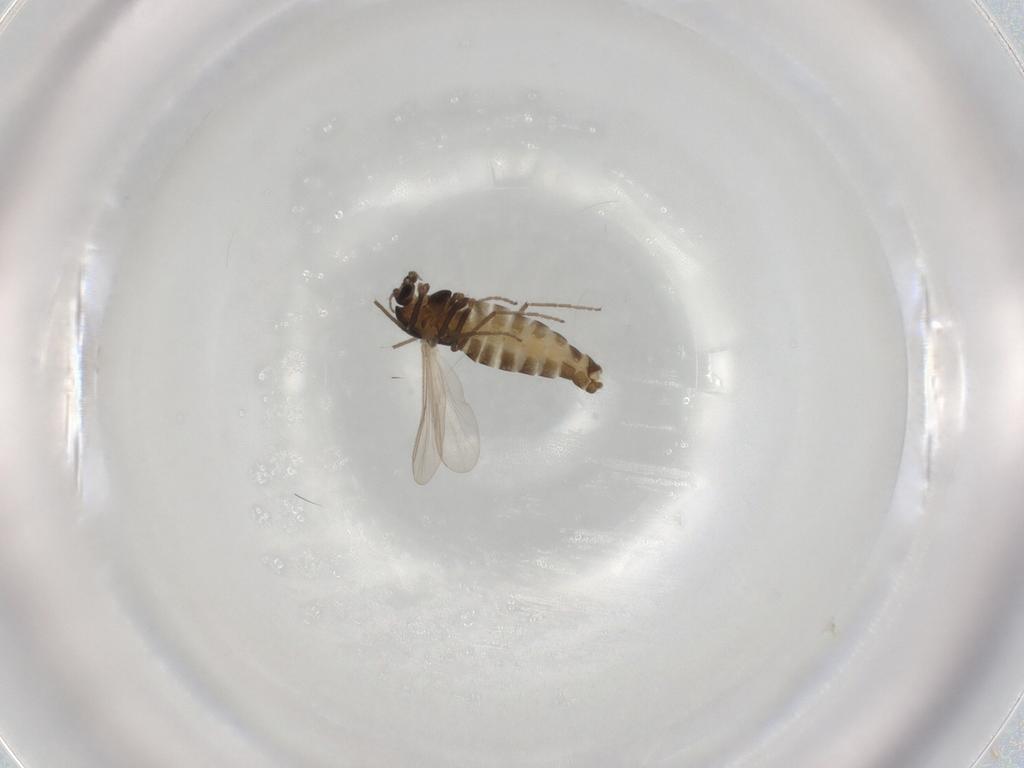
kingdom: Animalia
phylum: Arthropoda
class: Insecta
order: Diptera
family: Chironomidae
